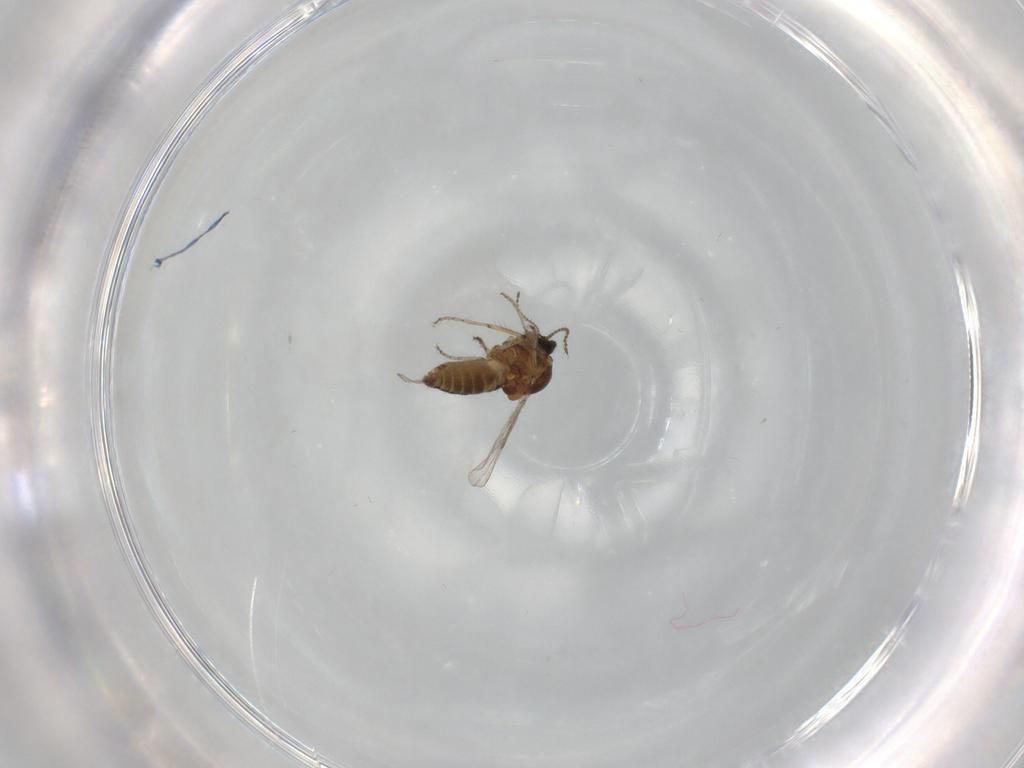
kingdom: Animalia
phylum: Arthropoda
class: Insecta
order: Diptera
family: Ceratopogonidae
